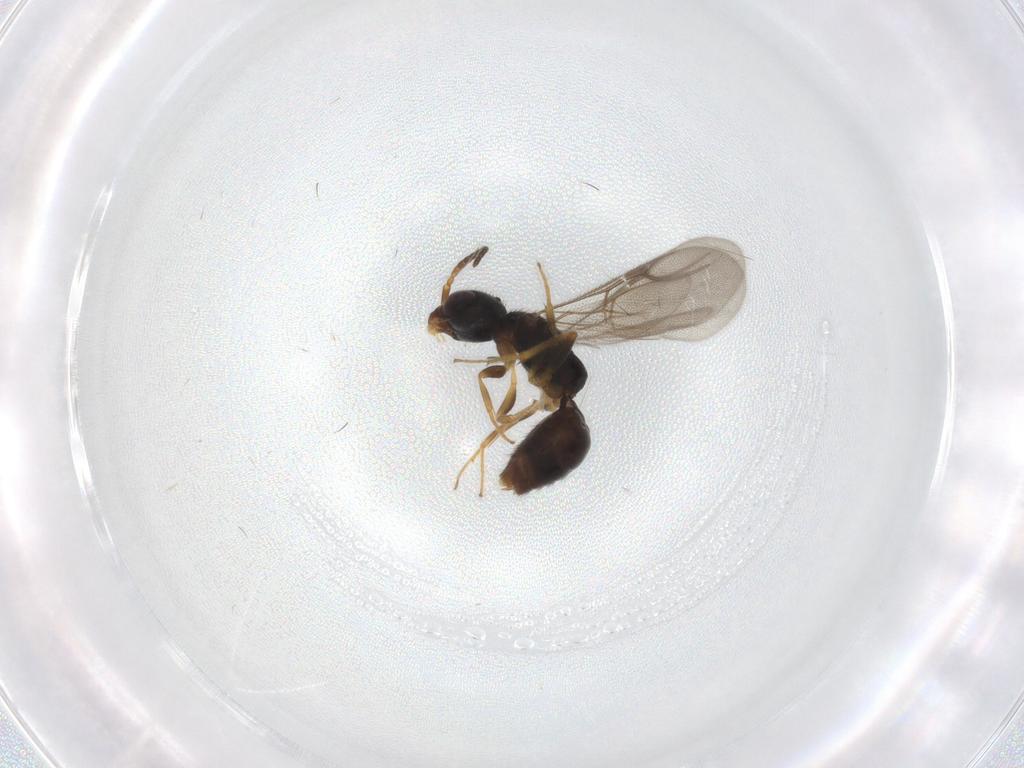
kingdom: Animalia
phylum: Arthropoda
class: Insecta
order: Hymenoptera
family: Bethylidae
